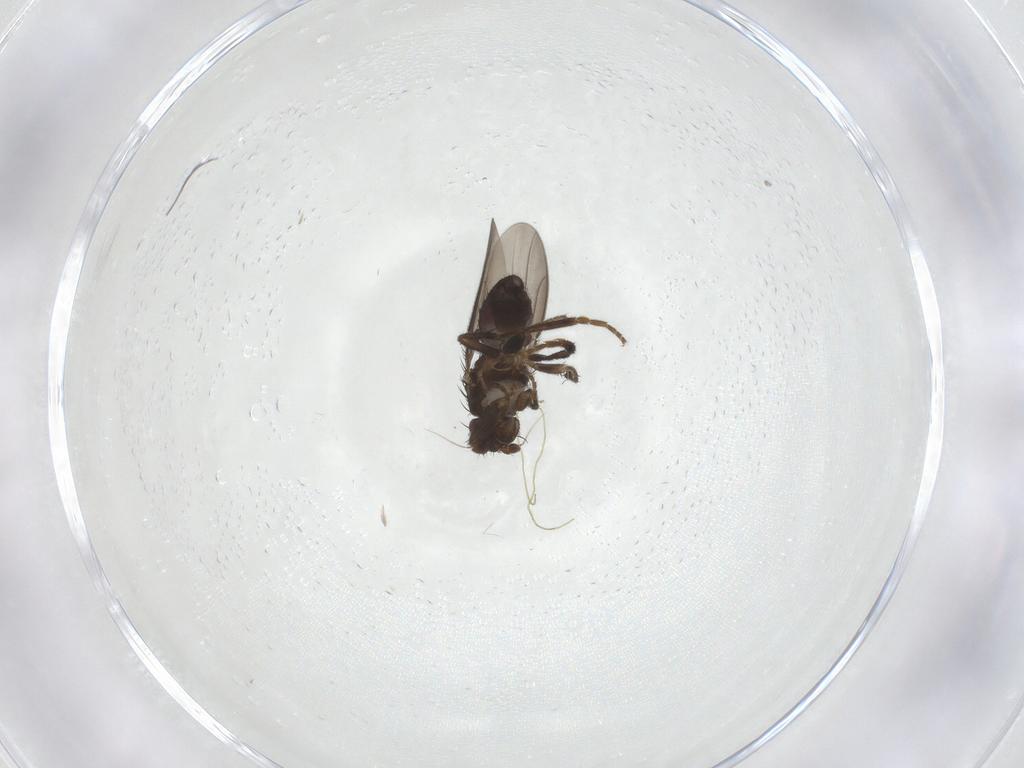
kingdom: Animalia
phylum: Arthropoda
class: Insecta
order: Diptera
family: Sphaeroceridae
